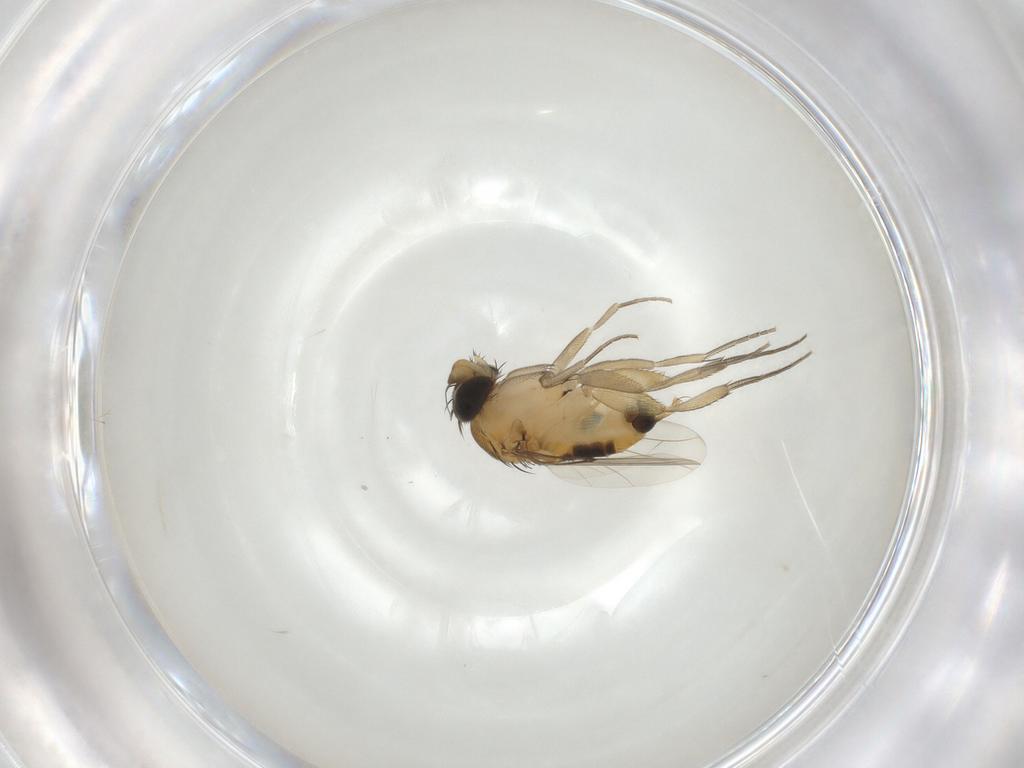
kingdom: Animalia
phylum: Arthropoda
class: Insecta
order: Diptera
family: Phoridae
